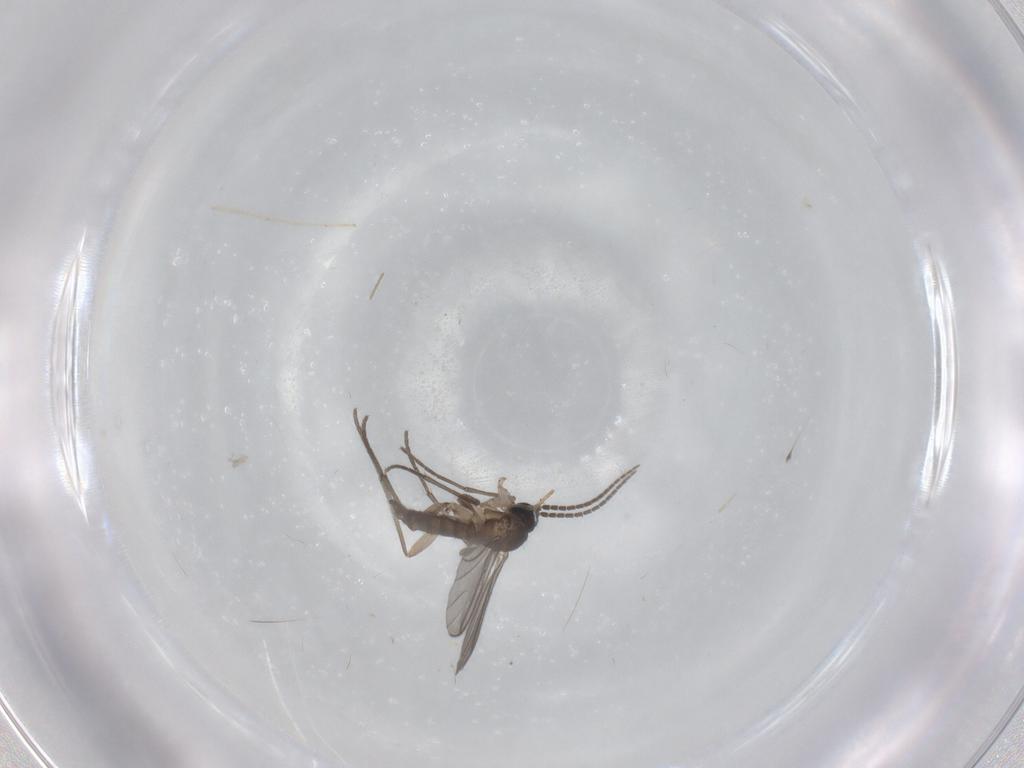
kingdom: Animalia
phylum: Arthropoda
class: Insecta
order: Diptera
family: Sciaridae
